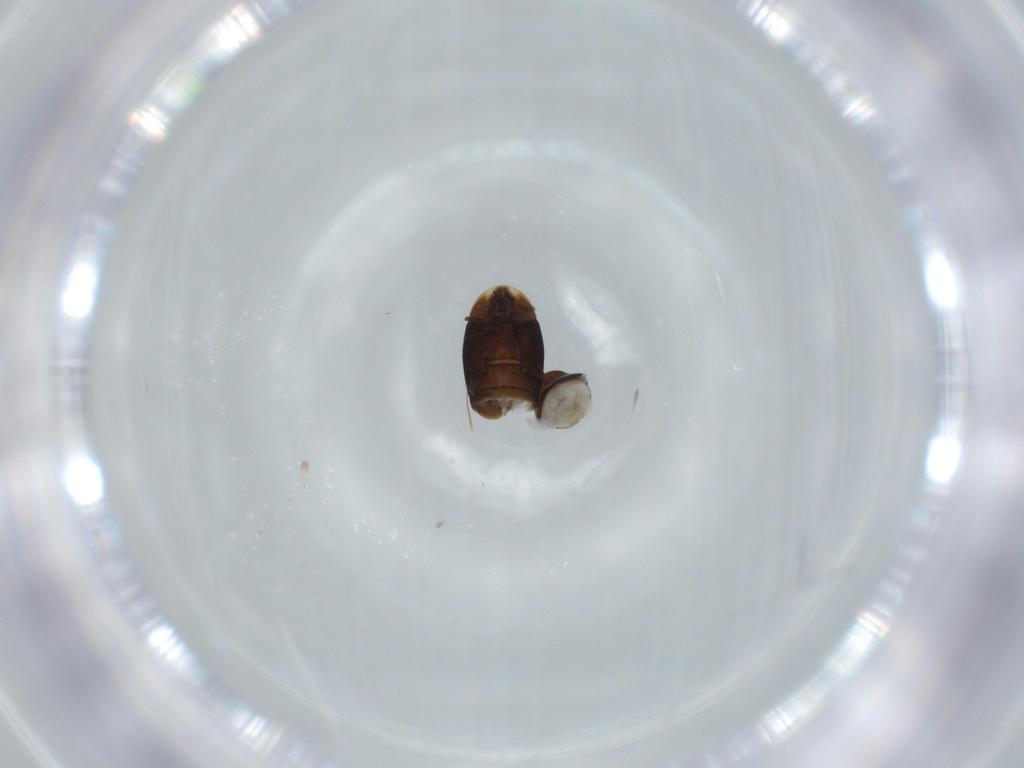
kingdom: Animalia
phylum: Arthropoda
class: Insecta
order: Coleoptera
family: Corylophidae
